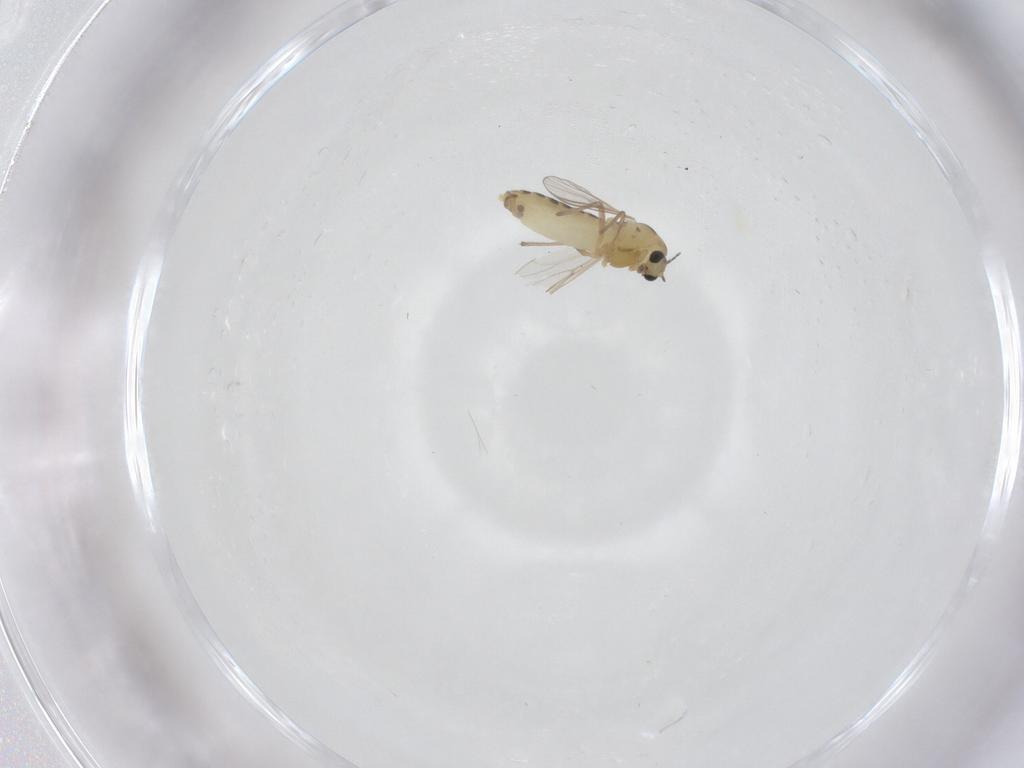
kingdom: Animalia
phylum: Arthropoda
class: Insecta
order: Diptera
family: Chironomidae
